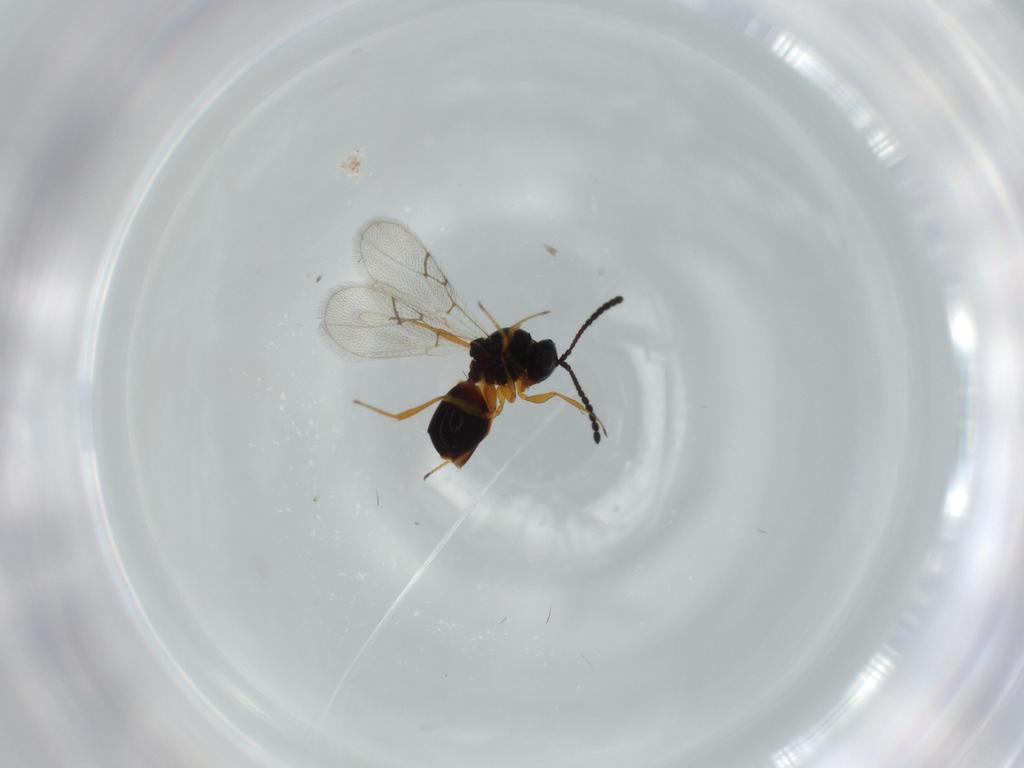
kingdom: Animalia
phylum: Arthropoda
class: Insecta
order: Hymenoptera
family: Figitidae
